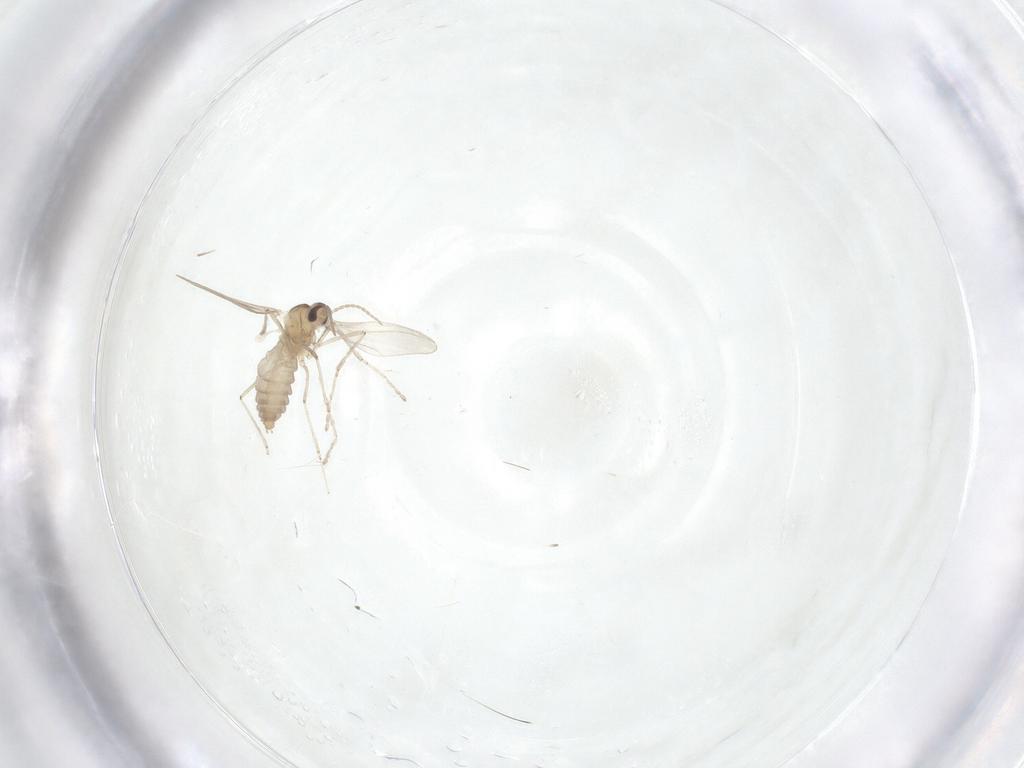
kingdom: Animalia
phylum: Arthropoda
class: Insecta
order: Diptera
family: Cecidomyiidae
